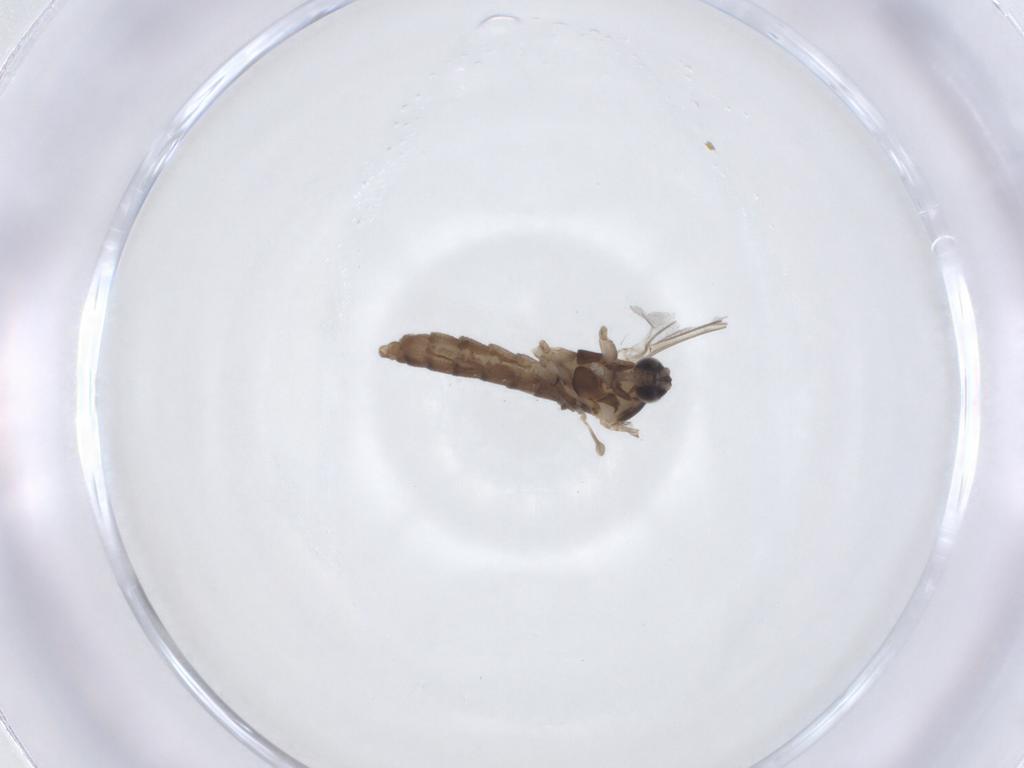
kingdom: Animalia
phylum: Arthropoda
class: Insecta
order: Diptera
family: Cecidomyiidae
